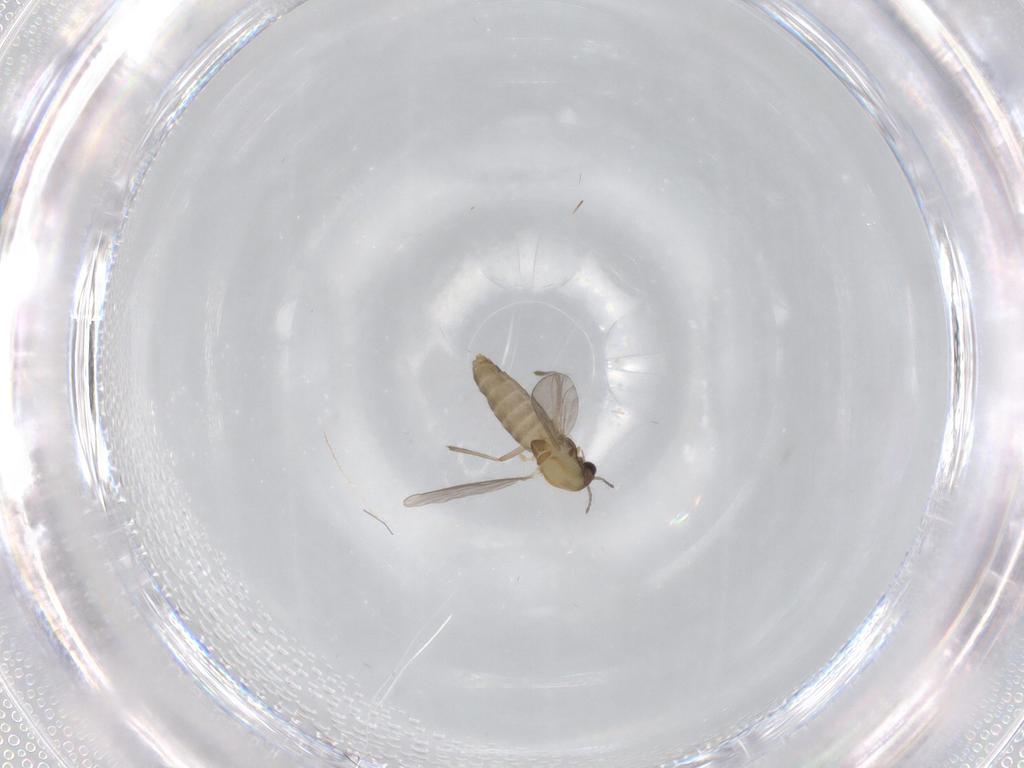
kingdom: Animalia
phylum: Arthropoda
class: Insecta
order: Diptera
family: Chironomidae
